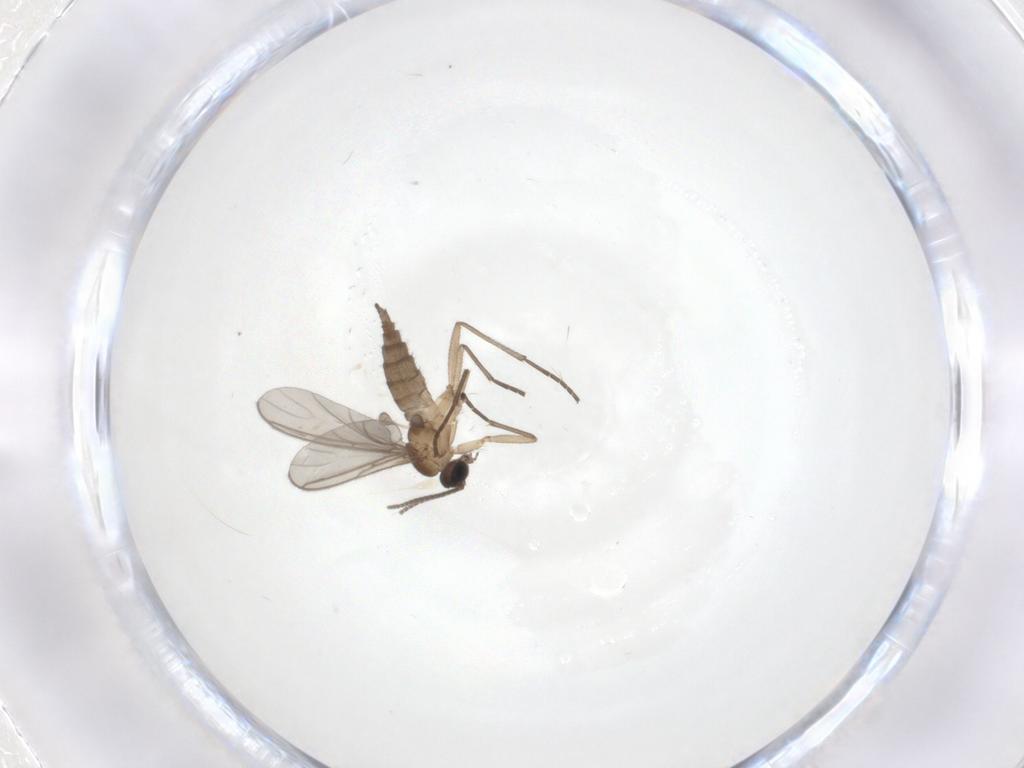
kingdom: Animalia
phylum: Arthropoda
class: Insecta
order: Diptera
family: Sciaridae
